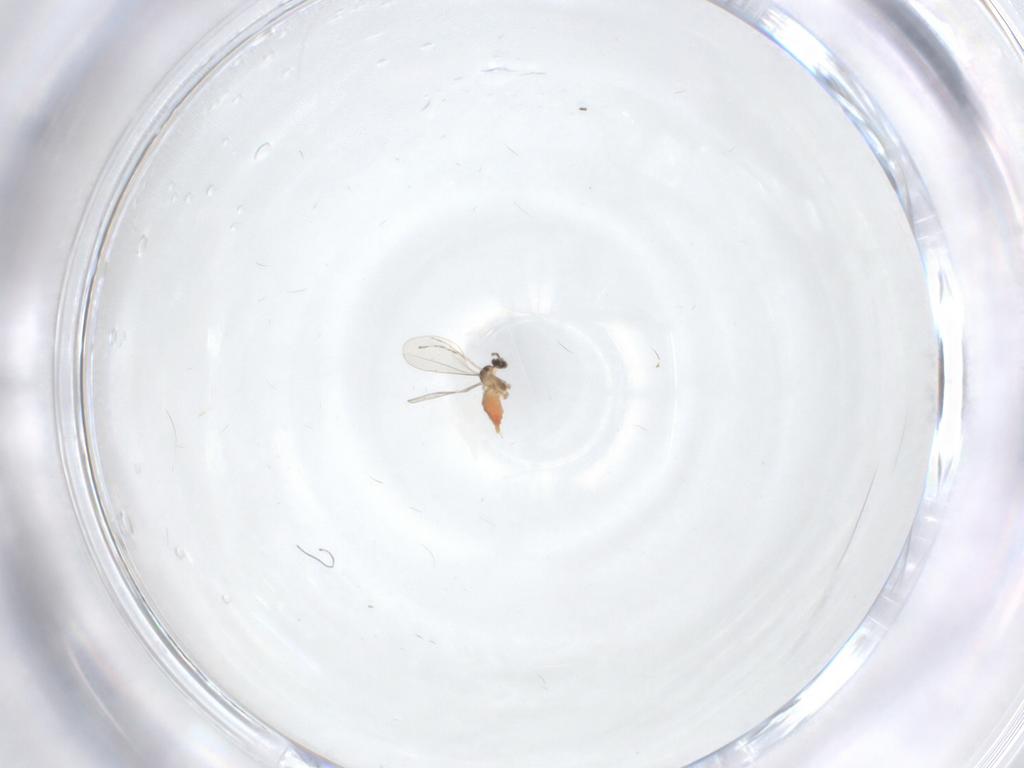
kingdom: Animalia
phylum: Arthropoda
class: Insecta
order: Diptera
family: Cecidomyiidae
